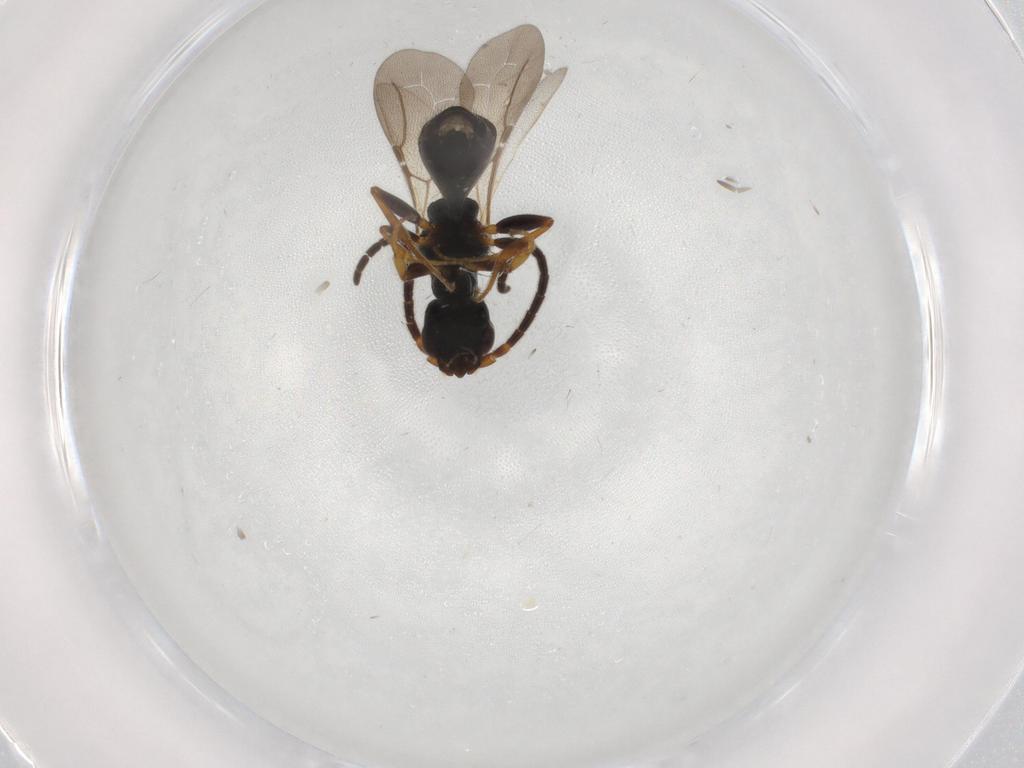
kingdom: Animalia
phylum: Arthropoda
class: Insecta
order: Hymenoptera
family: Formicidae
